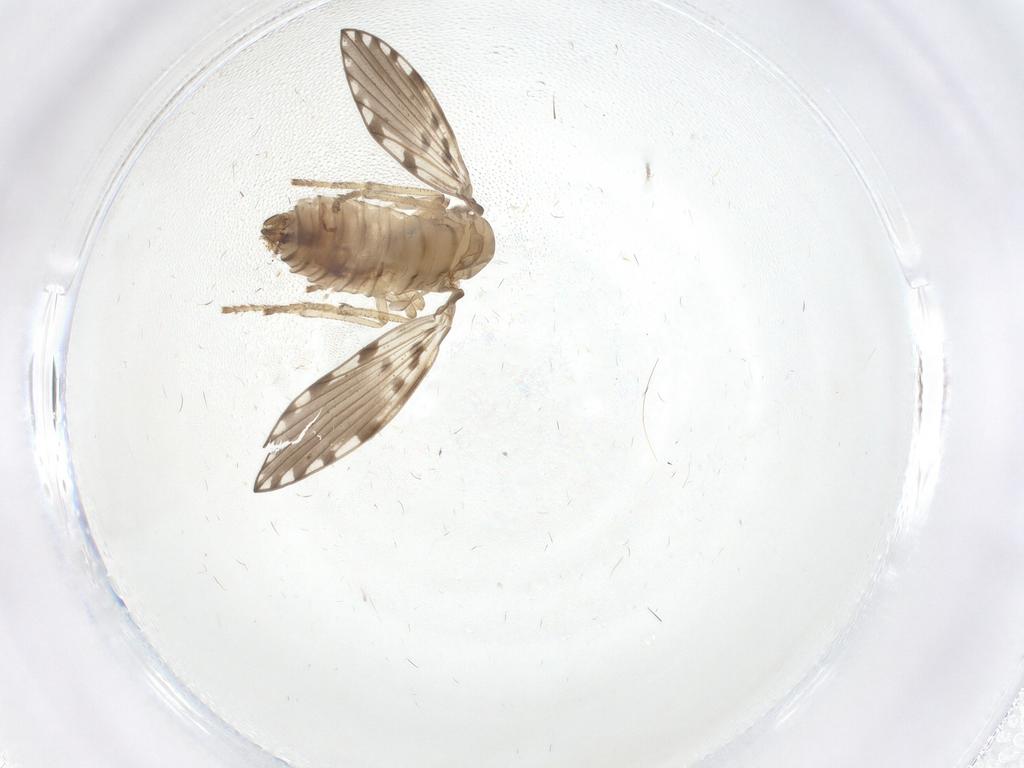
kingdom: Animalia
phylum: Arthropoda
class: Insecta
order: Diptera
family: Psychodidae
